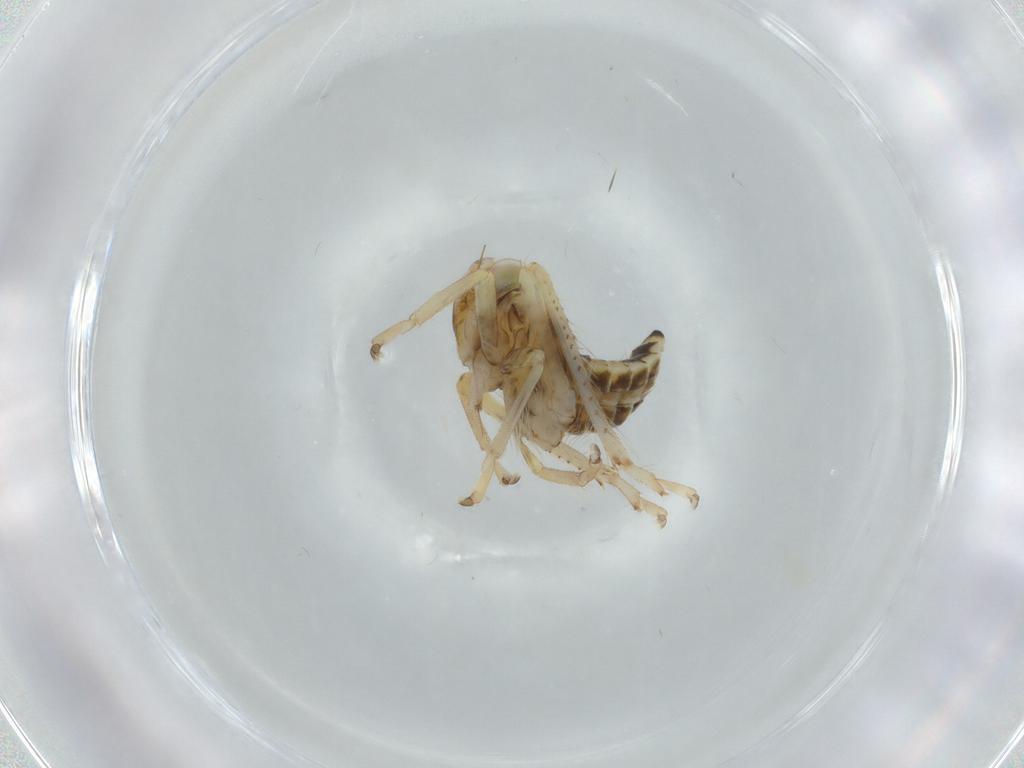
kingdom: Animalia
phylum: Arthropoda
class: Insecta
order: Hemiptera
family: Cicadellidae
